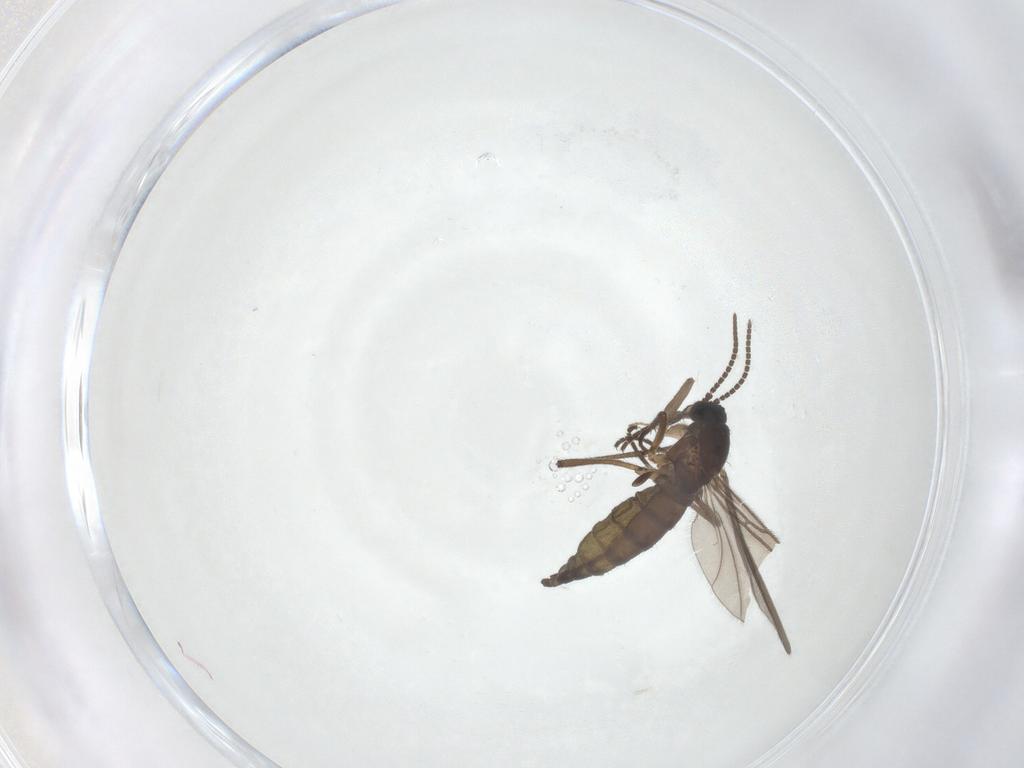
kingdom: Animalia
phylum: Arthropoda
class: Insecta
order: Diptera
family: Sciaridae
